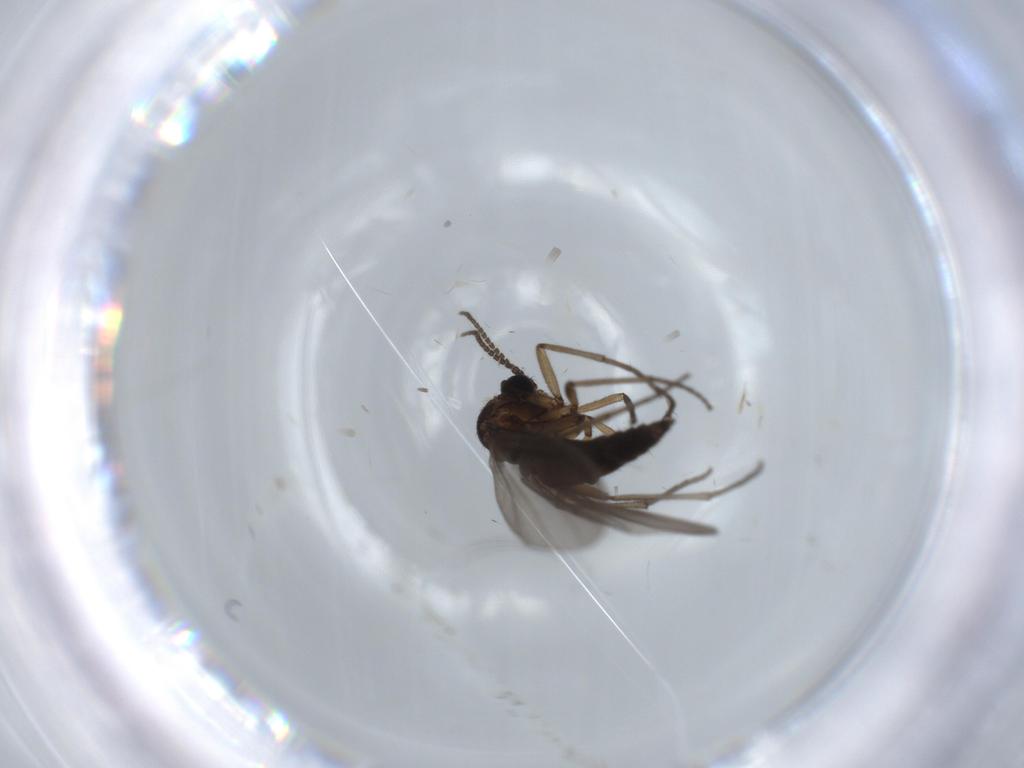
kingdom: Animalia
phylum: Arthropoda
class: Insecta
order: Diptera
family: Sciaridae
